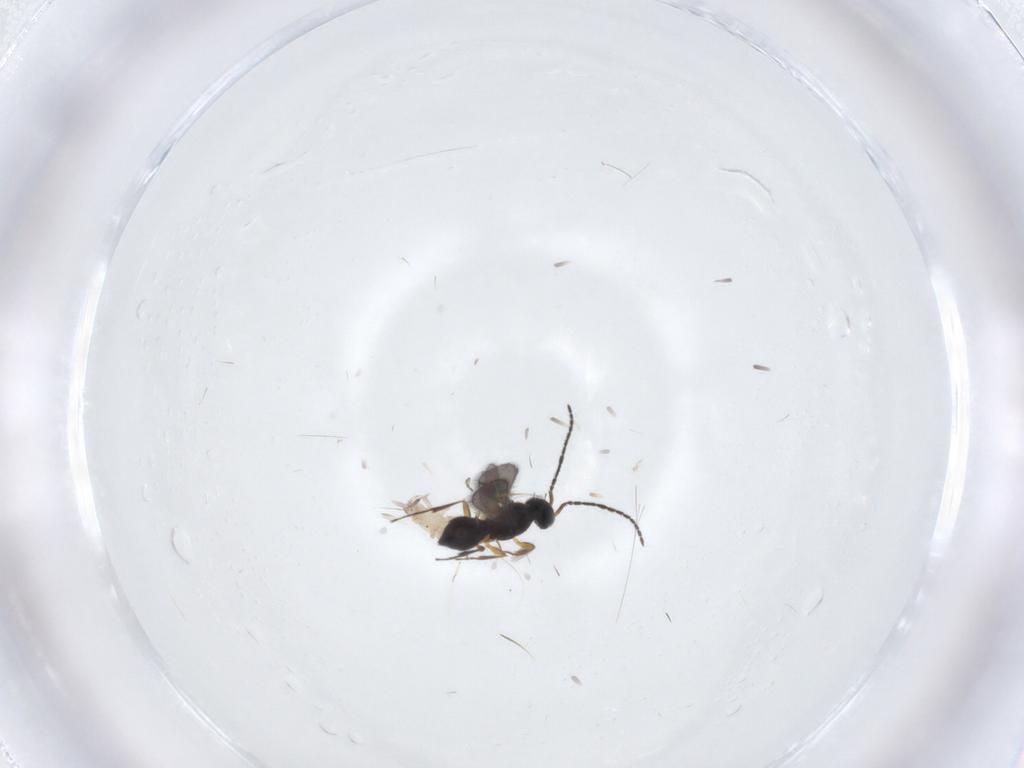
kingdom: Animalia
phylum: Arthropoda
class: Insecta
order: Hymenoptera
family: Scelionidae
